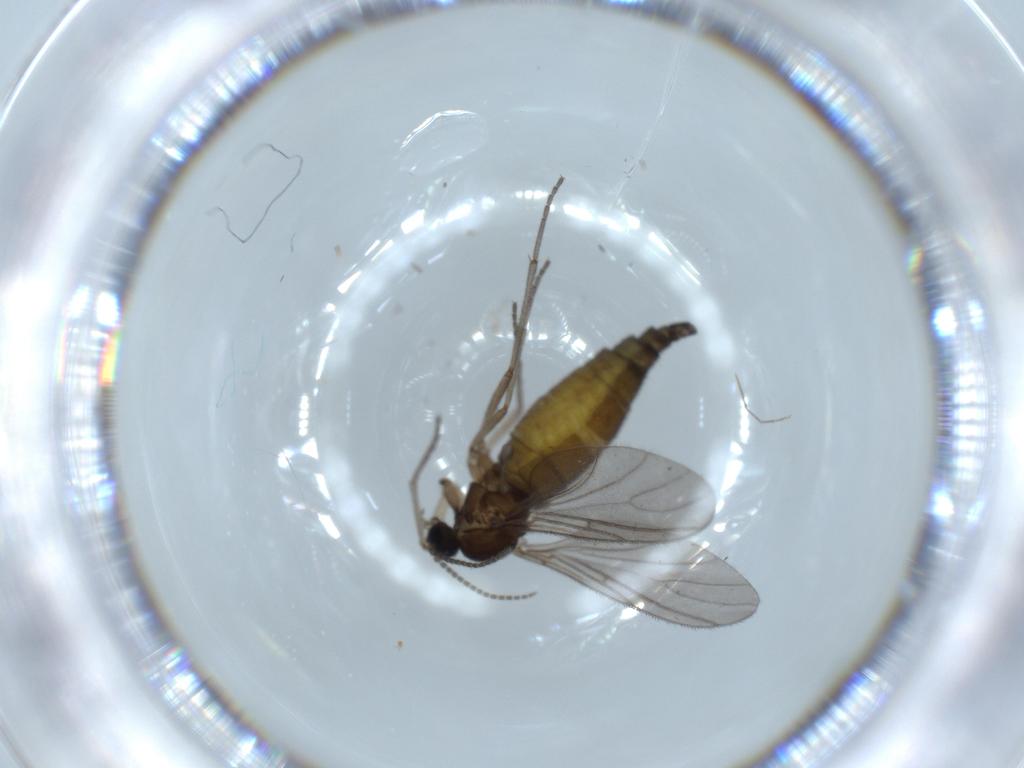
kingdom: Animalia
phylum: Arthropoda
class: Insecta
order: Diptera
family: Sciaridae
